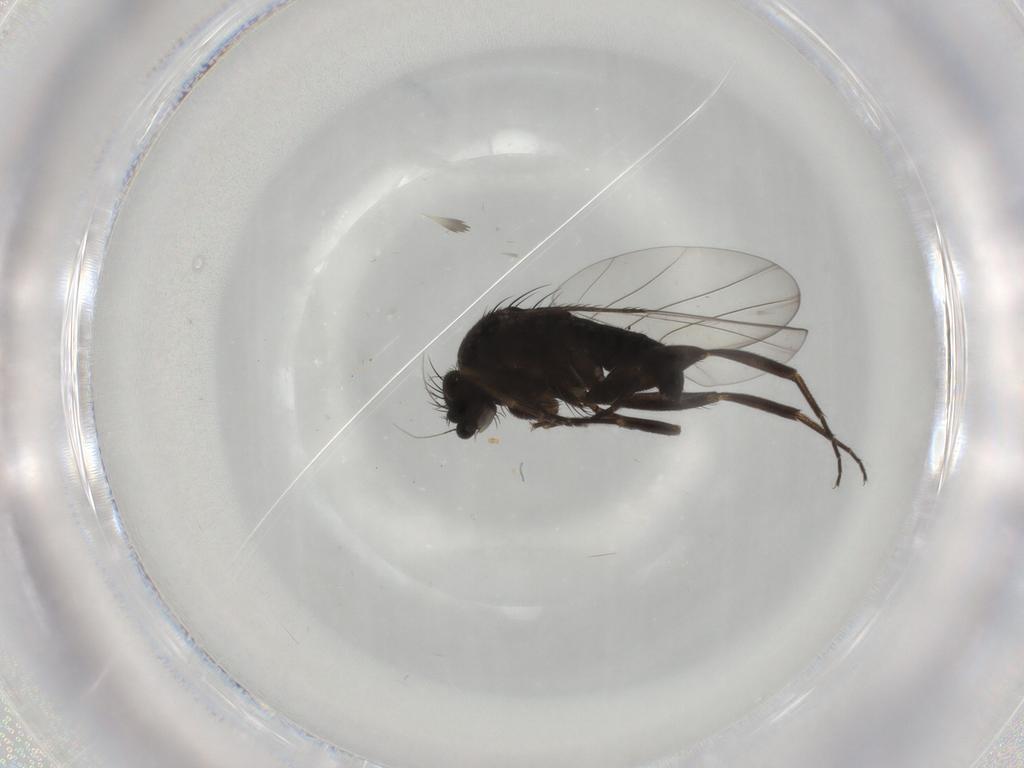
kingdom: Animalia
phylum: Arthropoda
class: Insecta
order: Diptera
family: Phoridae
